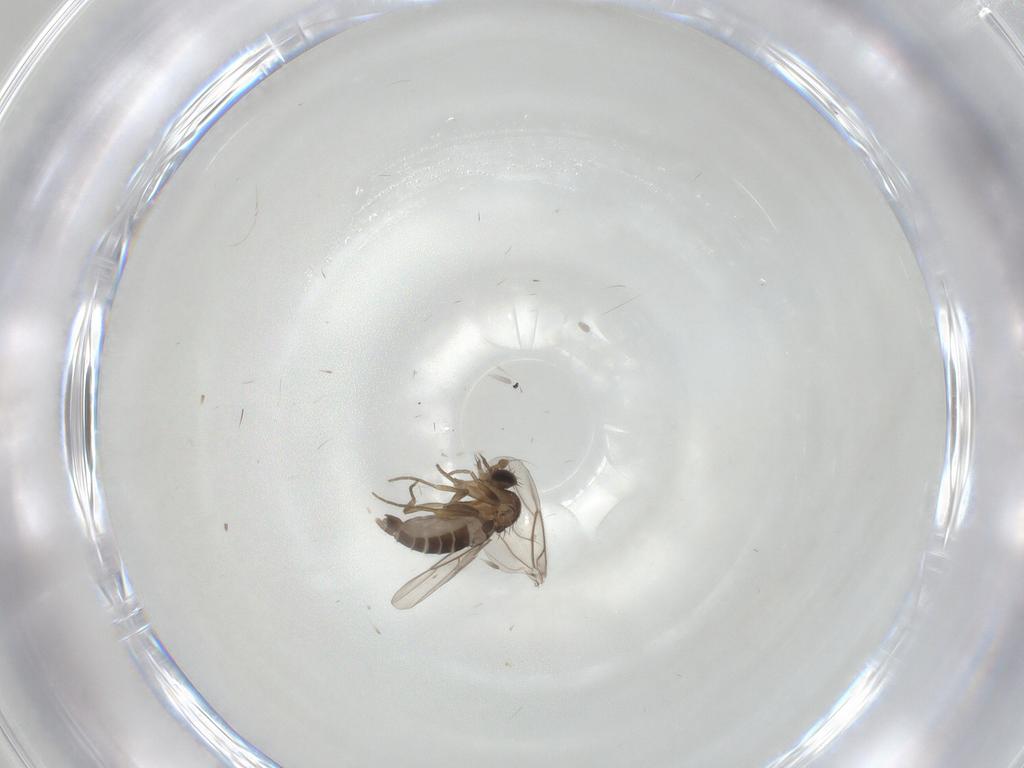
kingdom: Animalia
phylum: Arthropoda
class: Insecta
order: Diptera
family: Phoridae
